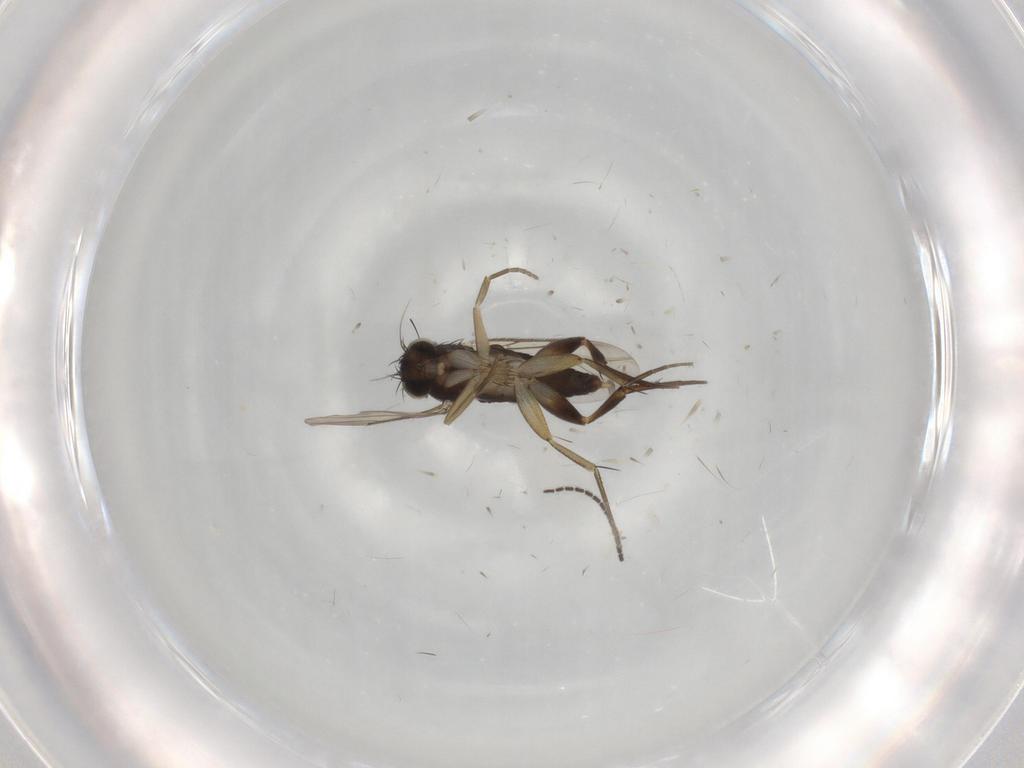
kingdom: Animalia
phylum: Arthropoda
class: Insecta
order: Diptera
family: Phoridae
